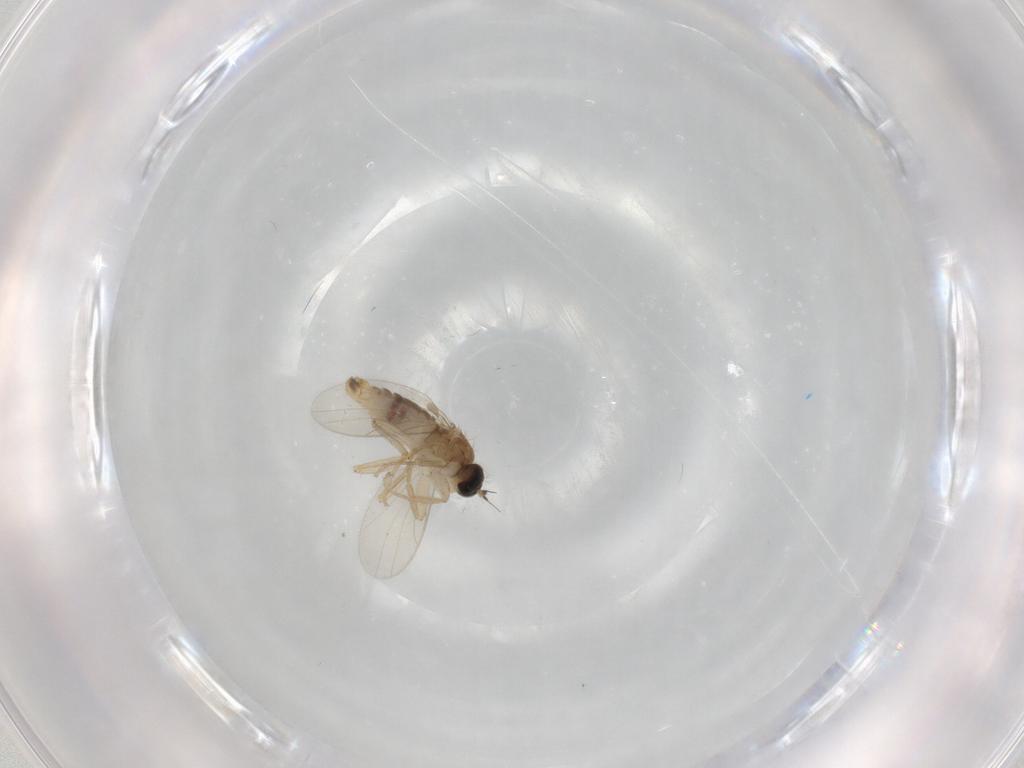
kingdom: Animalia
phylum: Arthropoda
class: Insecta
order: Diptera
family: Hybotidae
